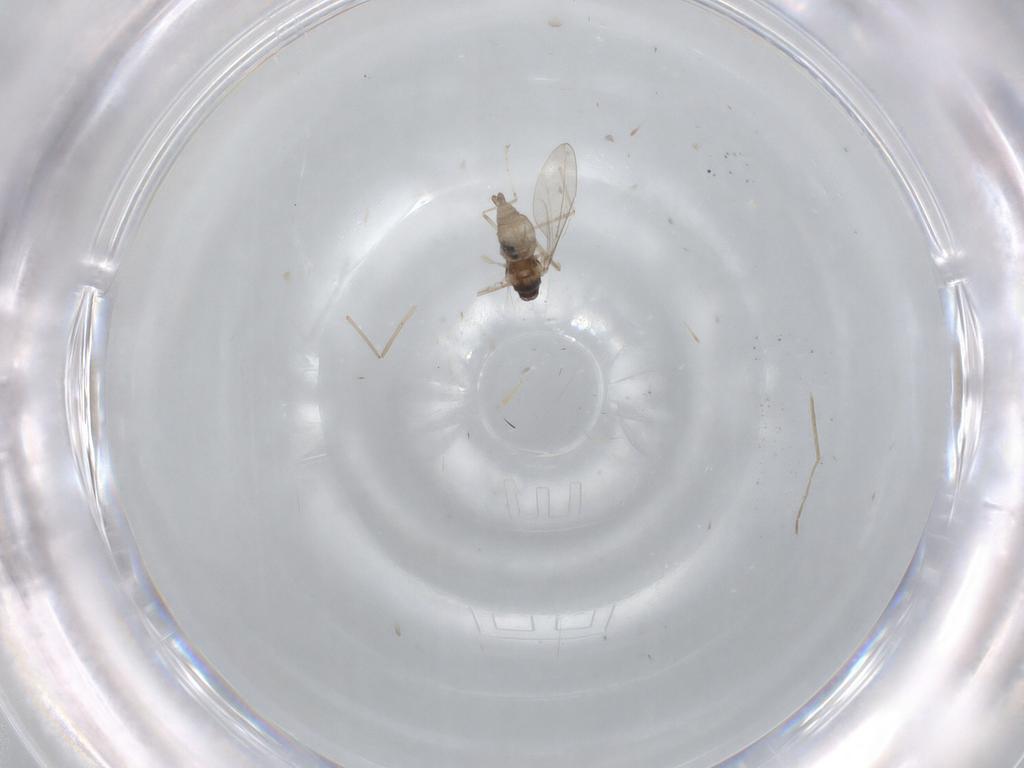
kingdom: Animalia
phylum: Arthropoda
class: Insecta
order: Diptera
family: Cecidomyiidae
